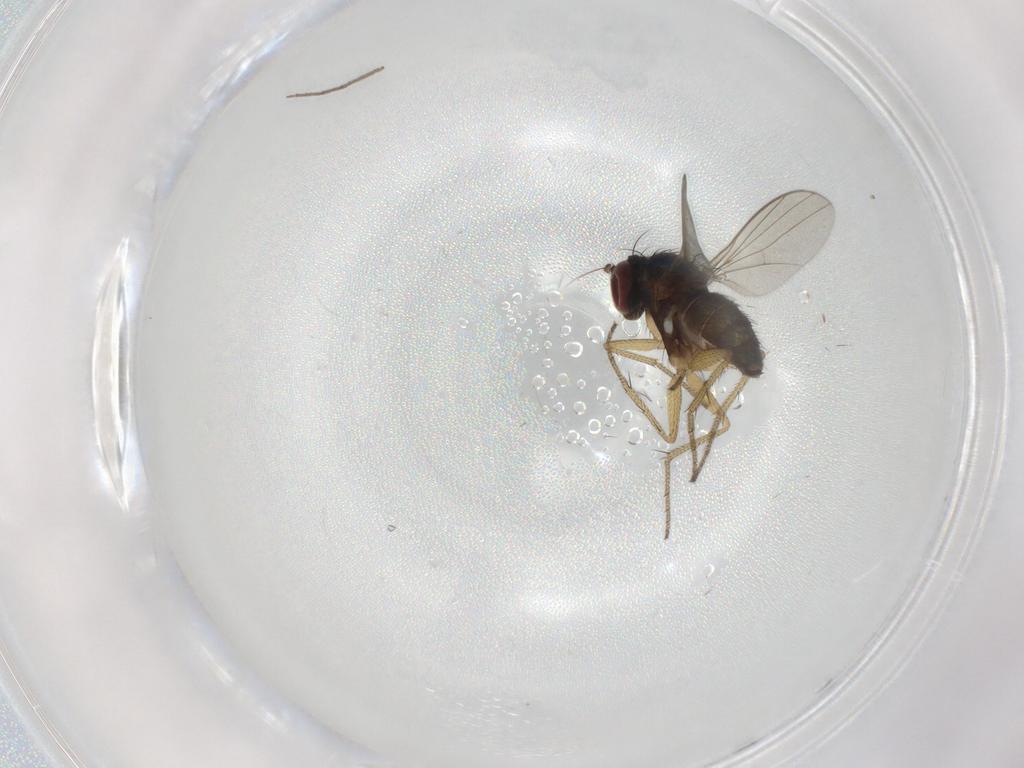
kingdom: Animalia
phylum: Arthropoda
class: Insecta
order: Diptera
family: Dolichopodidae
